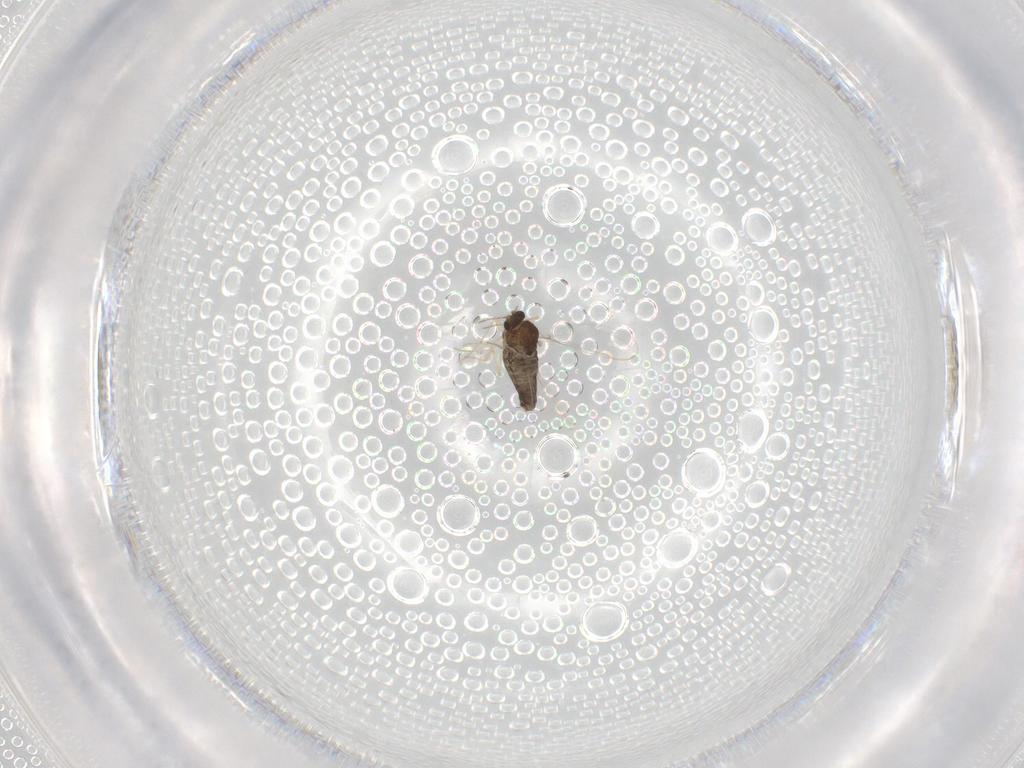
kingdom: Animalia
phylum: Arthropoda
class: Insecta
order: Diptera
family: Chironomidae
